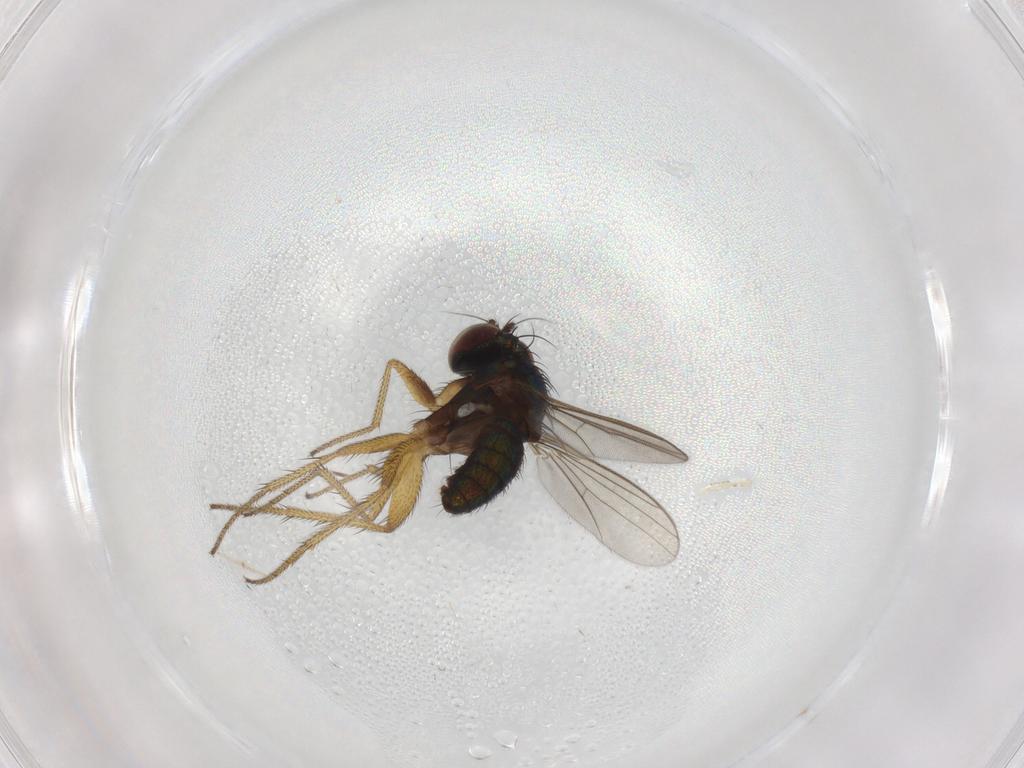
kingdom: Animalia
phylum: Arthropoda
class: Insecta
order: Diptera
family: Dolichopodidae
